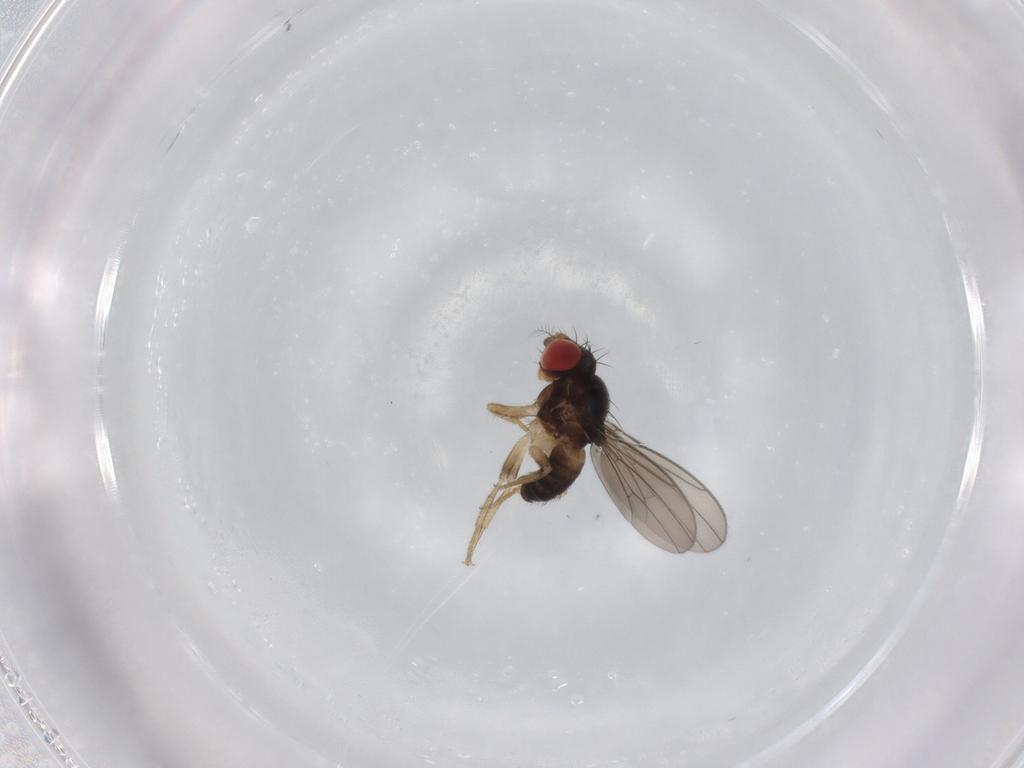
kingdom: Animalia
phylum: Arthropoda
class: Insecta
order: Diptera
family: Drosophilidae
